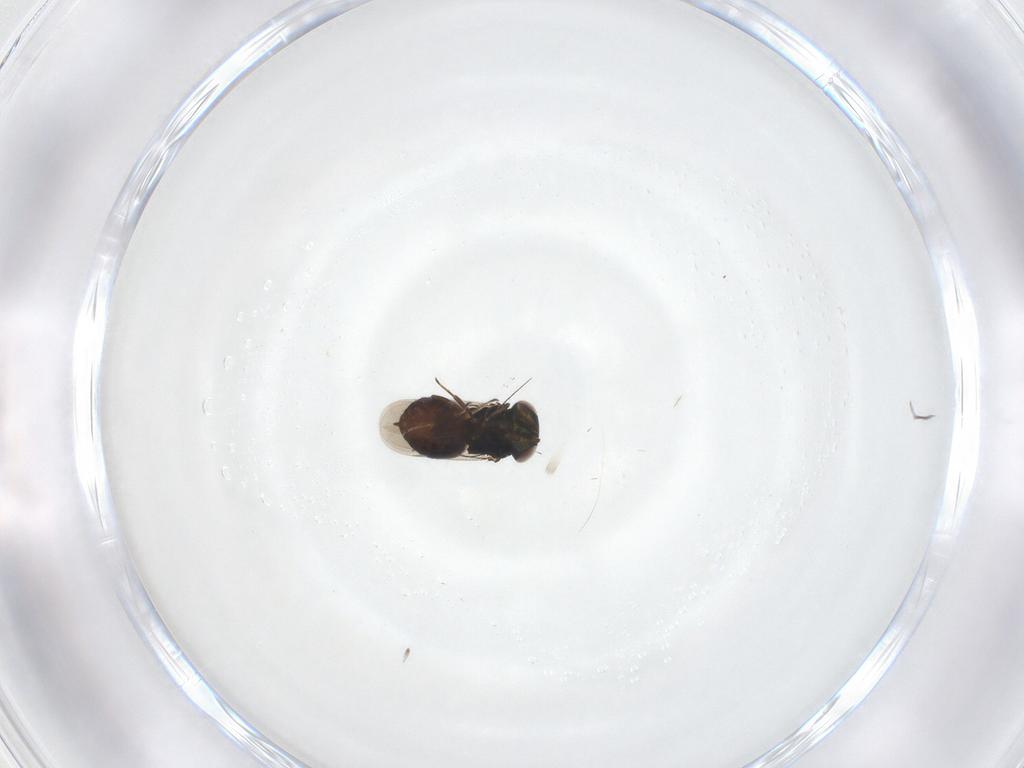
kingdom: Animalia
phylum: Arthropoda
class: Insecta
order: Hymenoptera
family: Eunotidae
